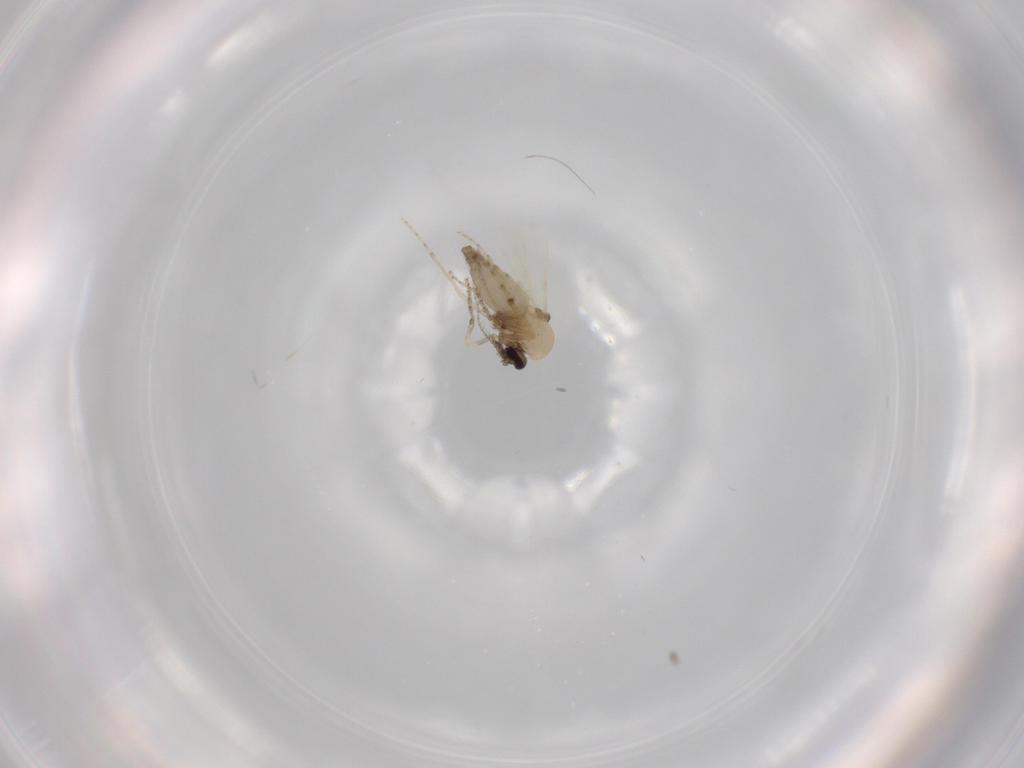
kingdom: Animalia
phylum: Arthropoda
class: Insecta
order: Diptera
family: Ceratopogonidae
